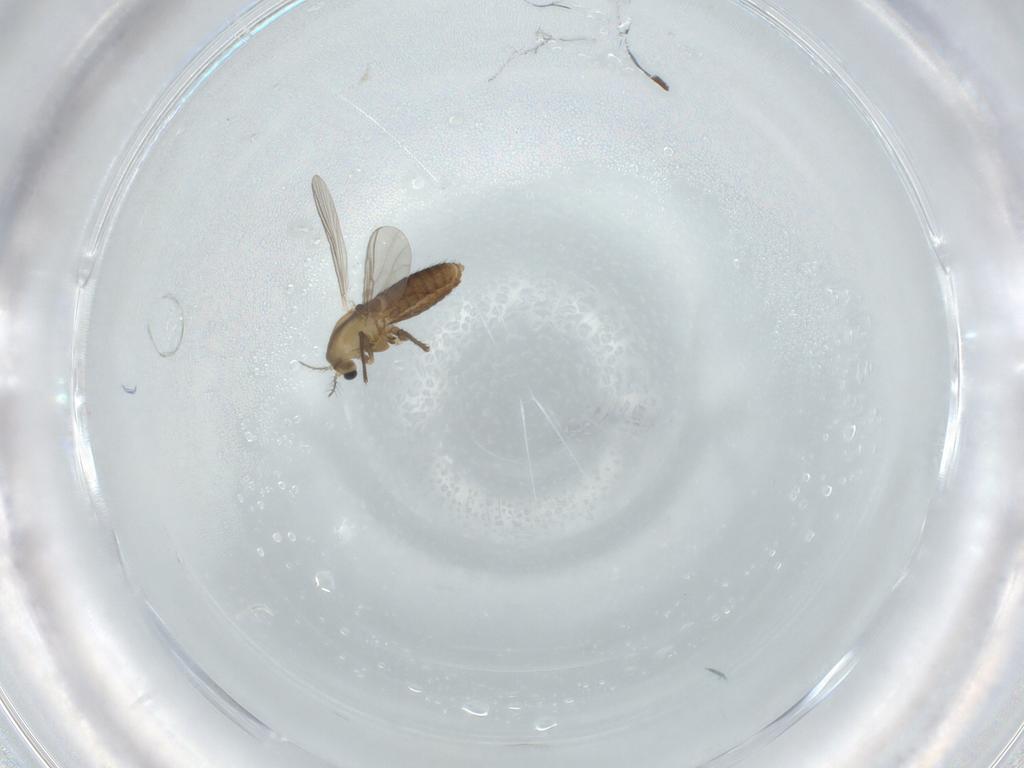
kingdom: Animalia
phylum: Arthropoda
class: Insecta
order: Diptera
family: Chironomidae
